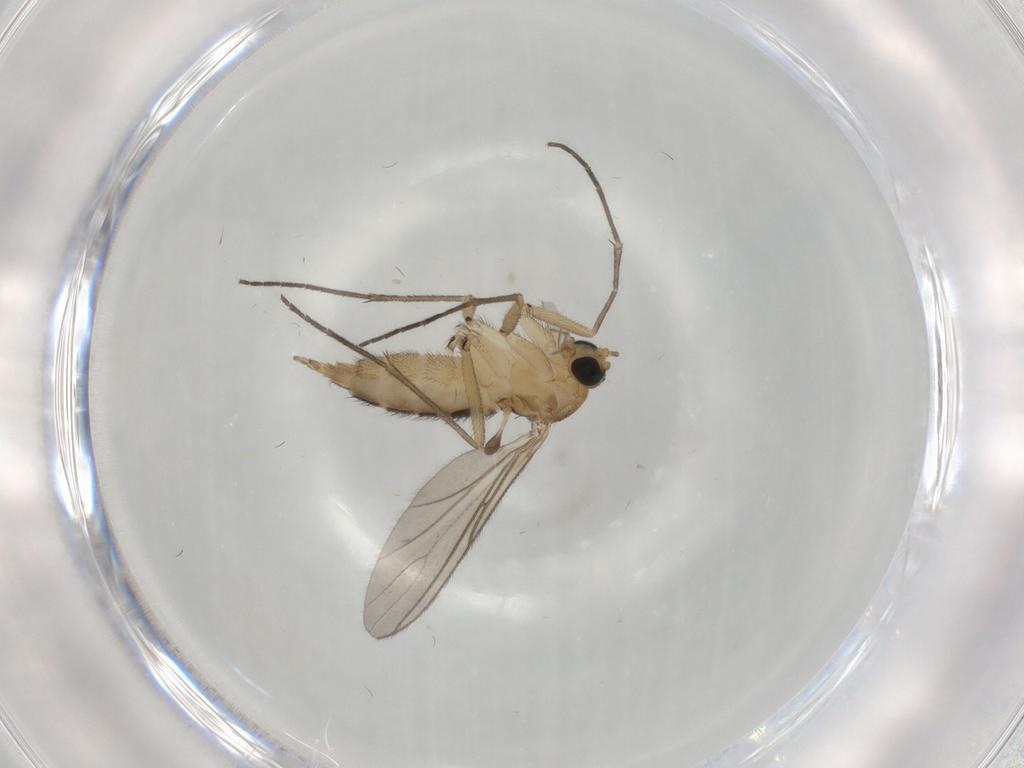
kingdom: Animalia
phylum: Arthropoda
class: Insecta
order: Diptera
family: Sciaridae
